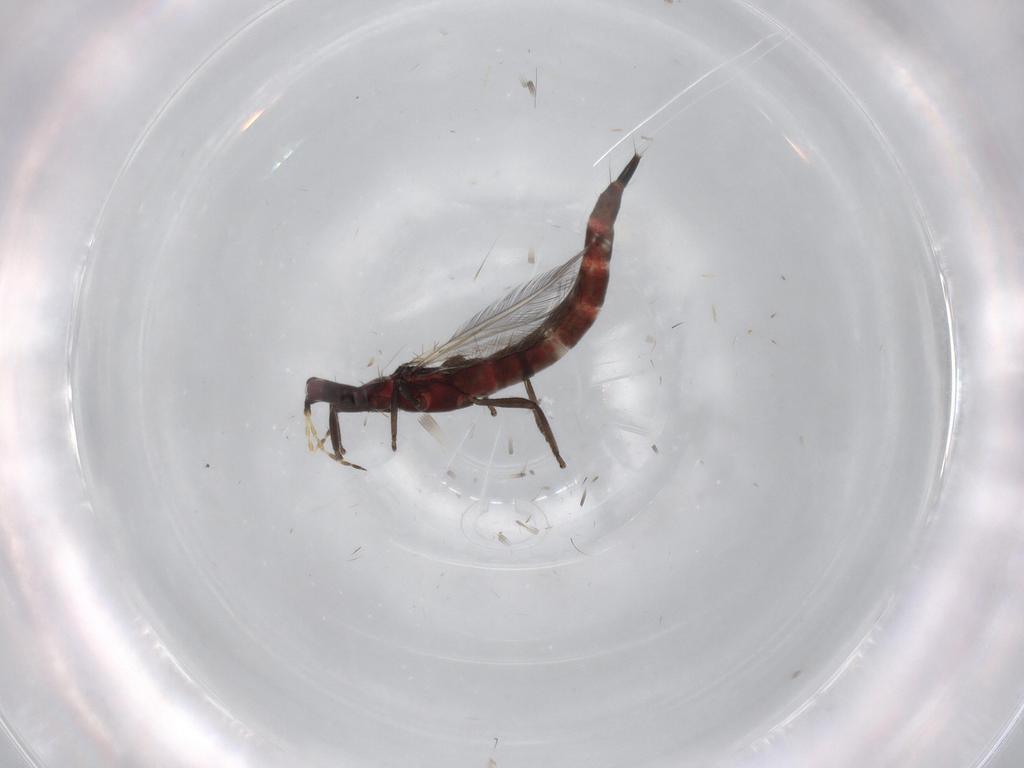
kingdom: Animalia
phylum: Arthropoda
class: Insecta
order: Thysanoptera
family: Phlaeothripidae
